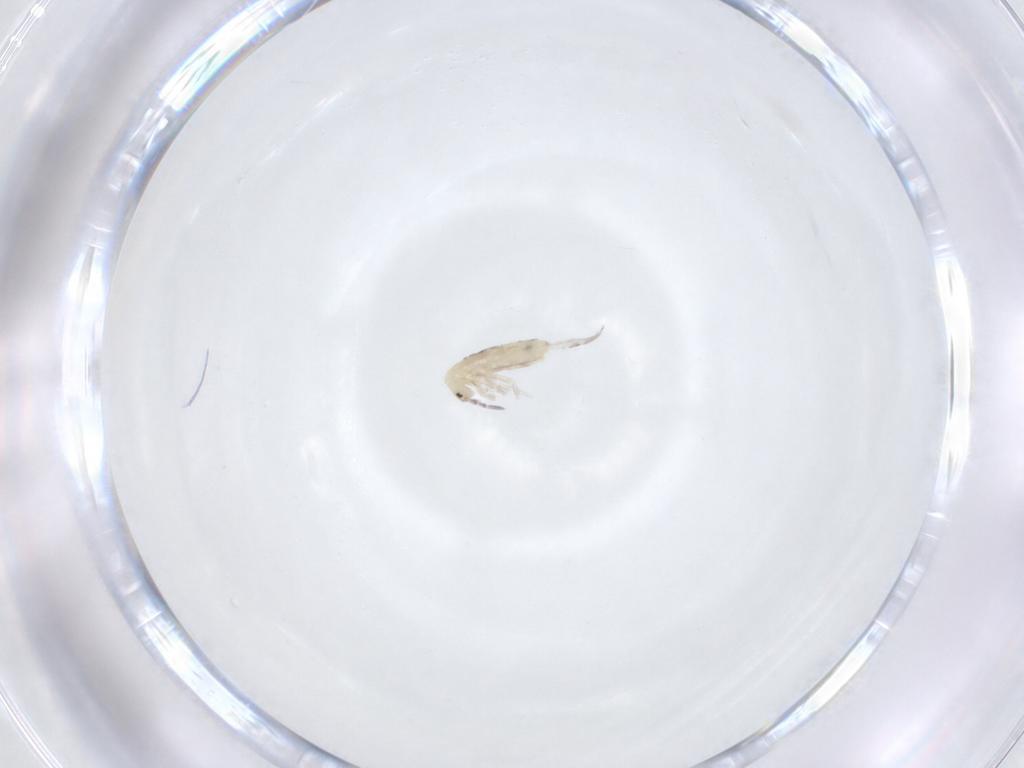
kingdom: Animalia
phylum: Arthropoda
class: Collembola
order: Entomobryomorpha
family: Entomobryidae
